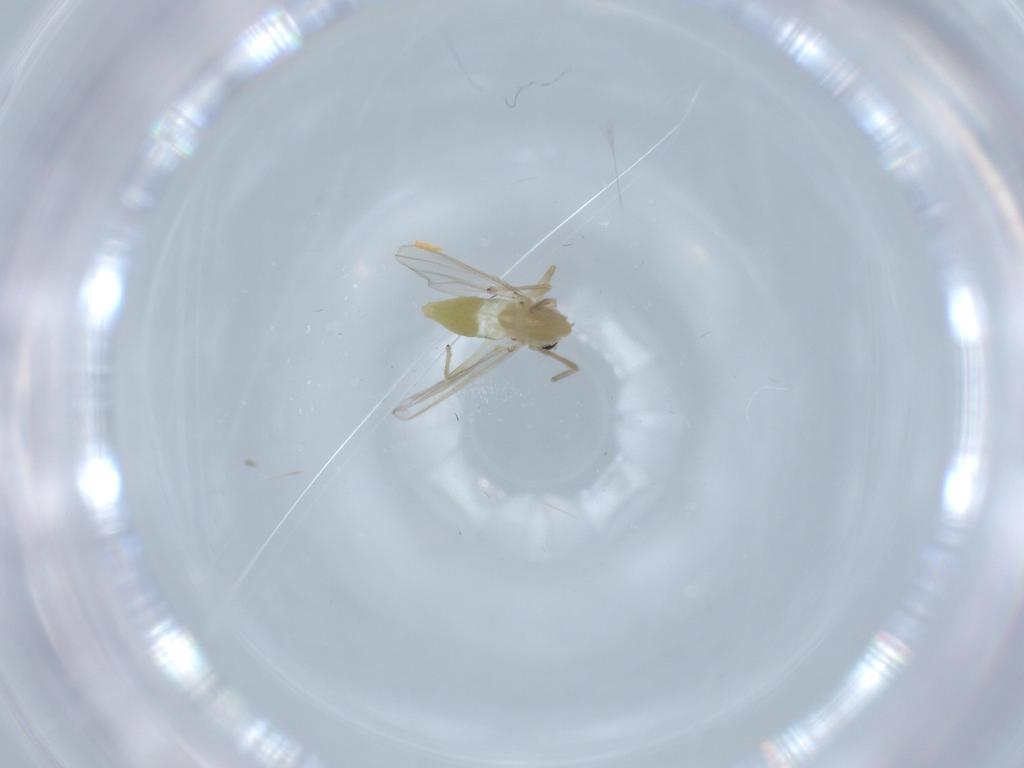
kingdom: Animalia
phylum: Arthropoda
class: Insecta
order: Diptera
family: Chironomidae
